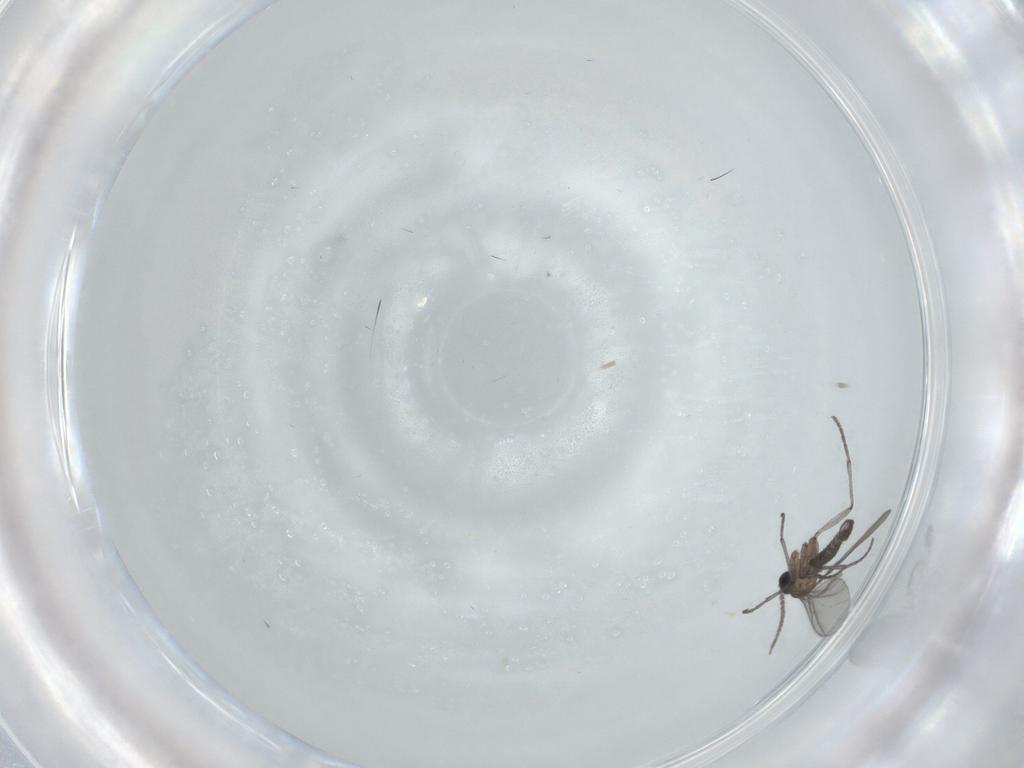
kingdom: Animalia
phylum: Arthropoda
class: Insecta
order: Diptera
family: Sciaridae
